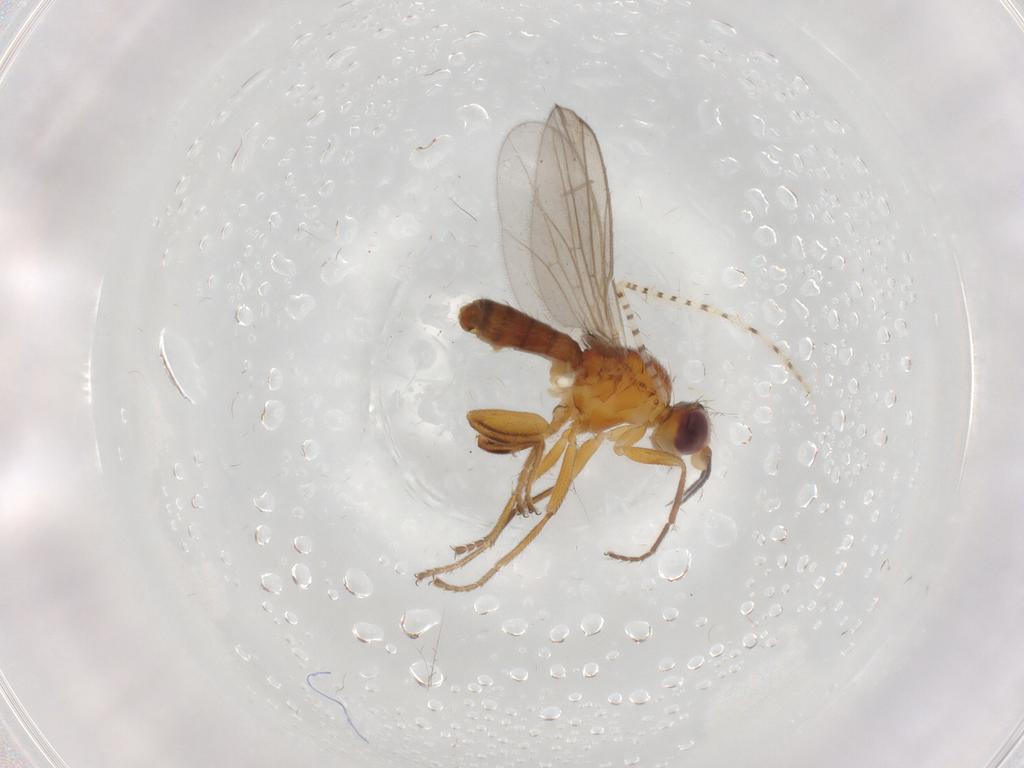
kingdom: Animalia
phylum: Arthropoda
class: Insecta
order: Diptera
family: Chloropidae
